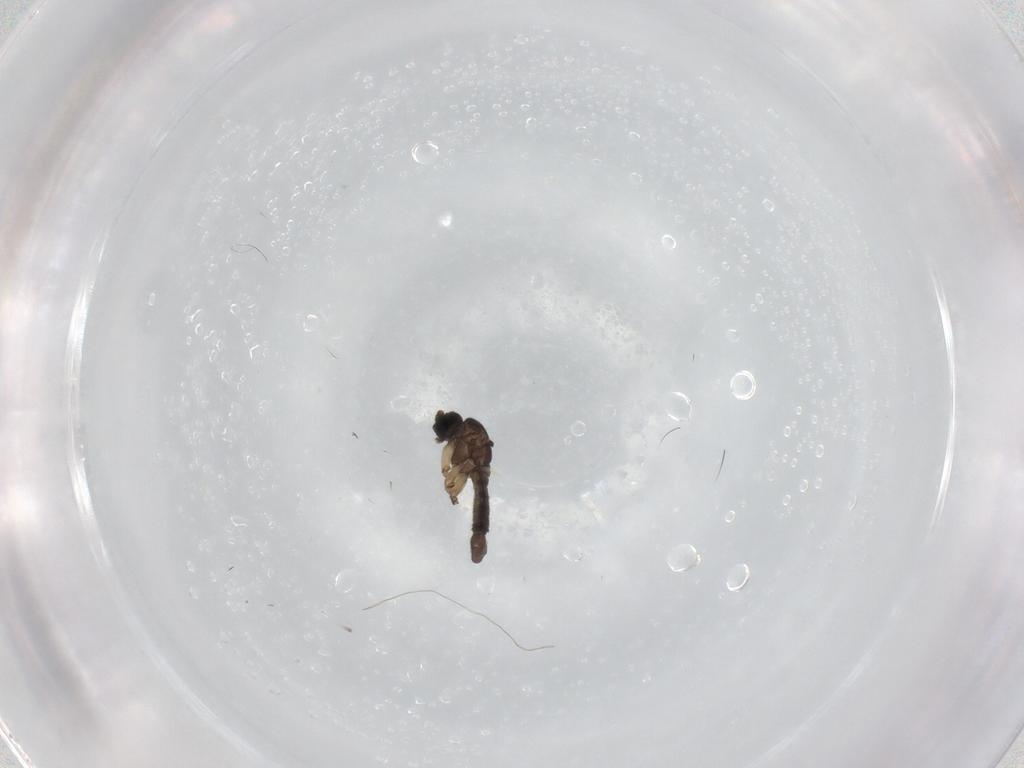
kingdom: Animalia
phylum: Arthropoda
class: Insecta
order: Diptera
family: Sciaridae
